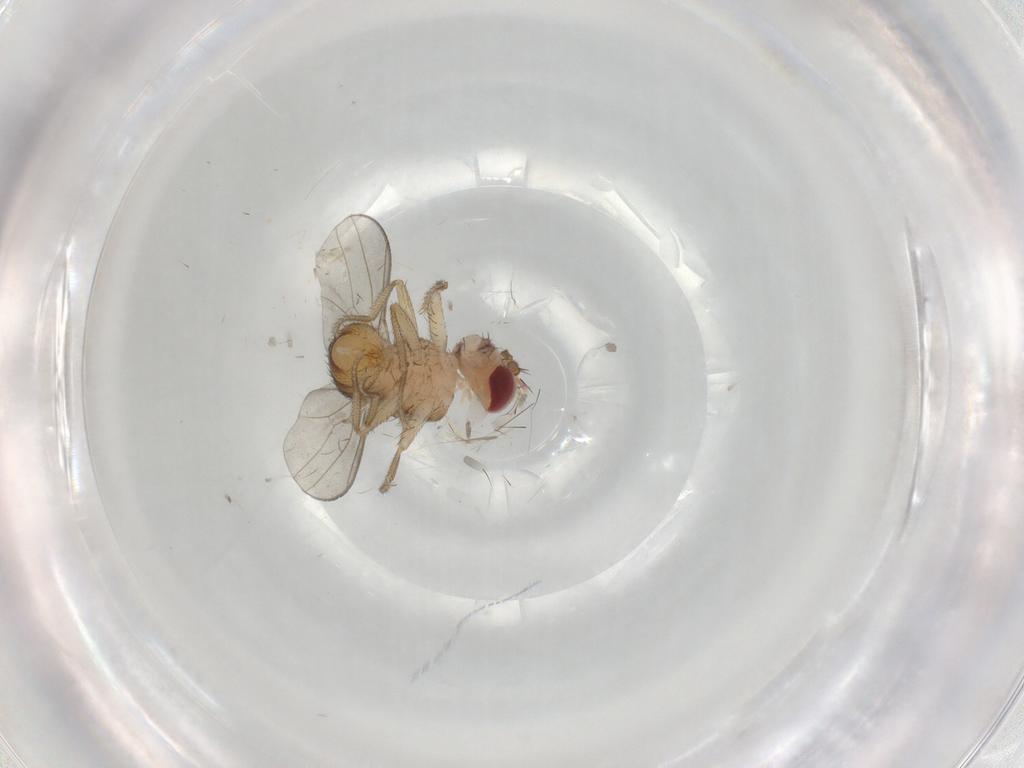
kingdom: Animalia
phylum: Arthropoda
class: Insecta
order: Diptera
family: Drosophilidae
